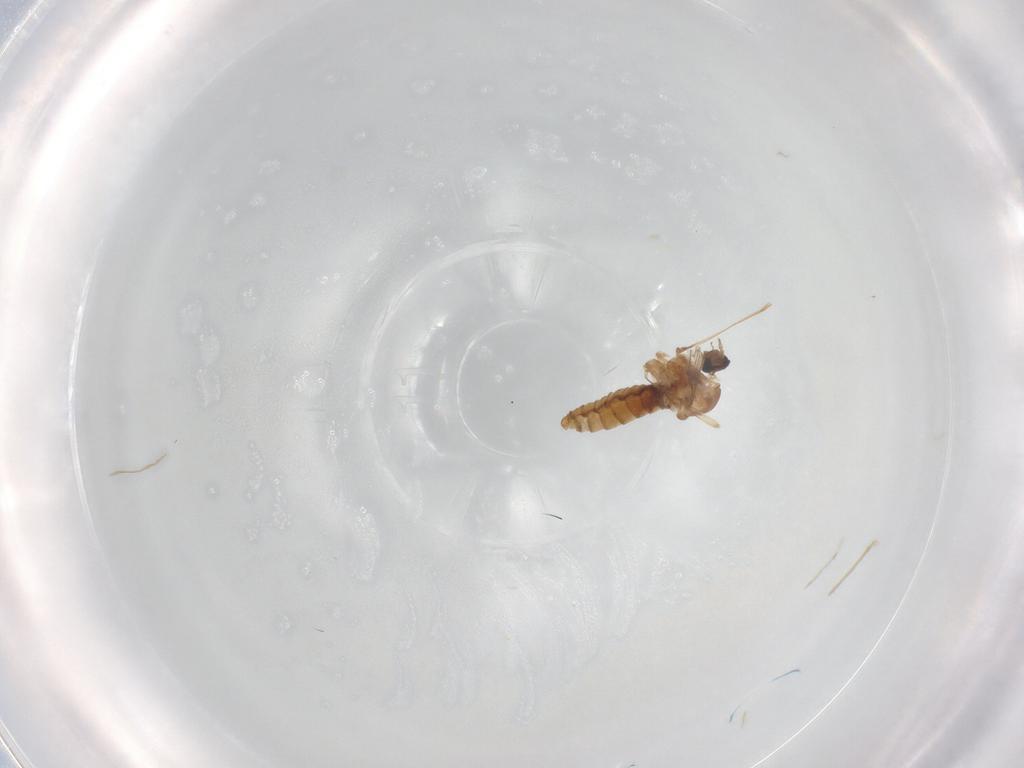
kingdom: Animalia
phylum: Arthropoda
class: Insecta
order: Diptera
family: Cecidomyiidae
